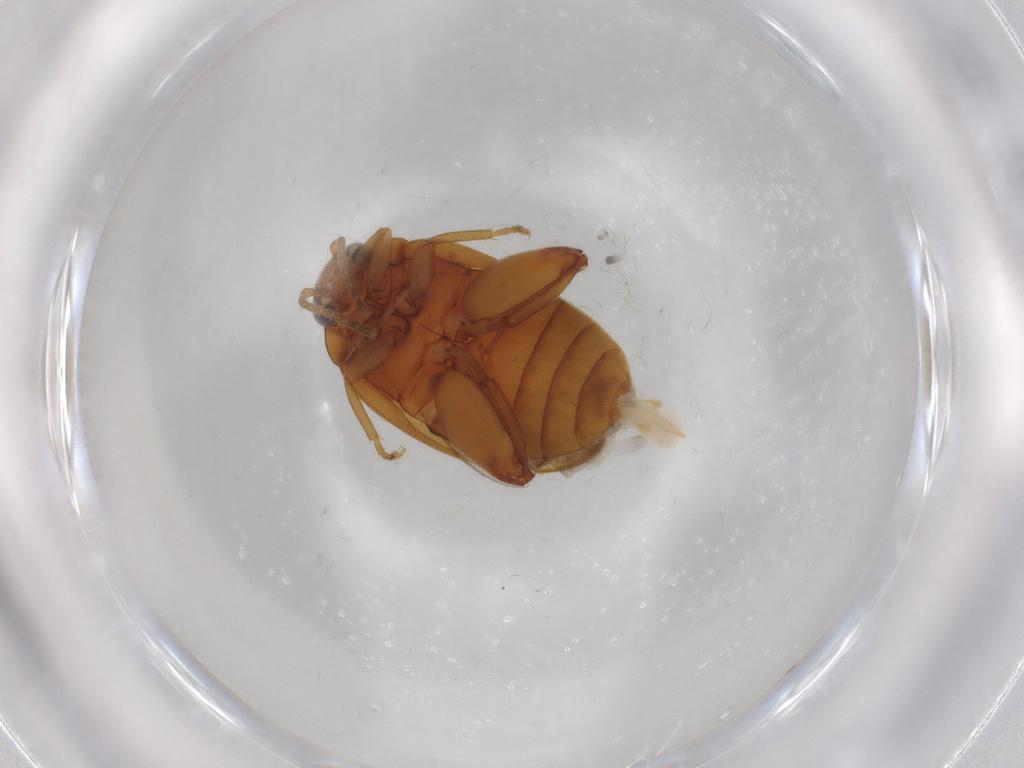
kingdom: Animalia
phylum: Arthropoda
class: Insecta
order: Coleoptera
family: Scirtidae
